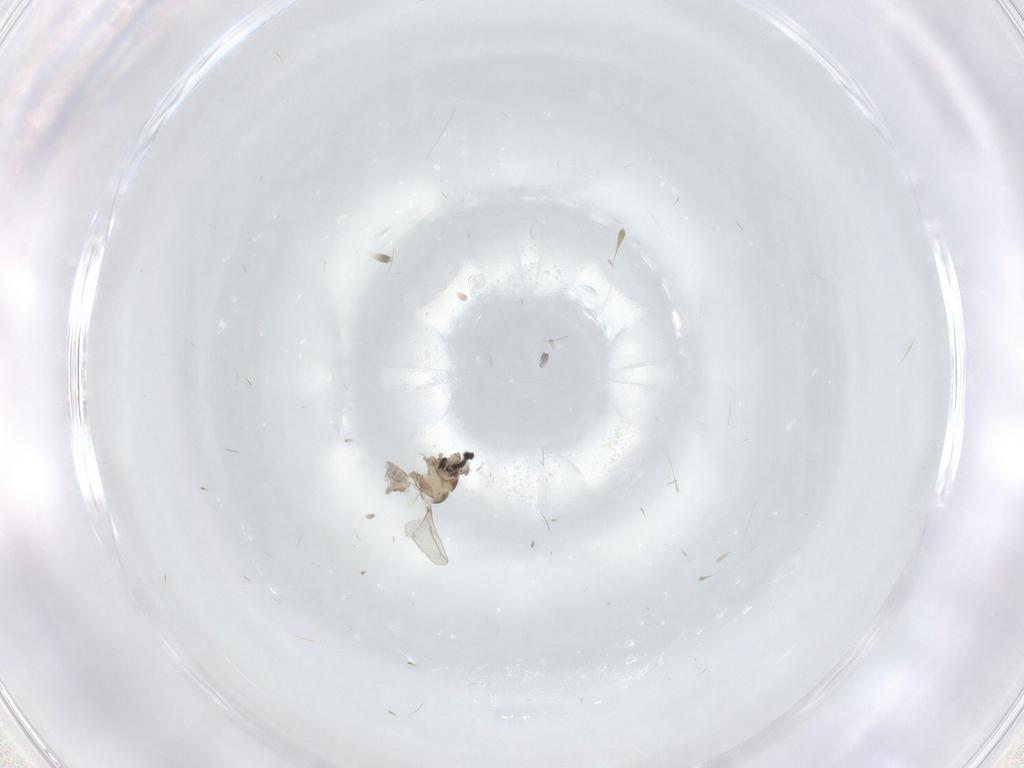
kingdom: Animalia
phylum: Arthropoda
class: Insecta
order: Diptera
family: Cecidomyiidae
